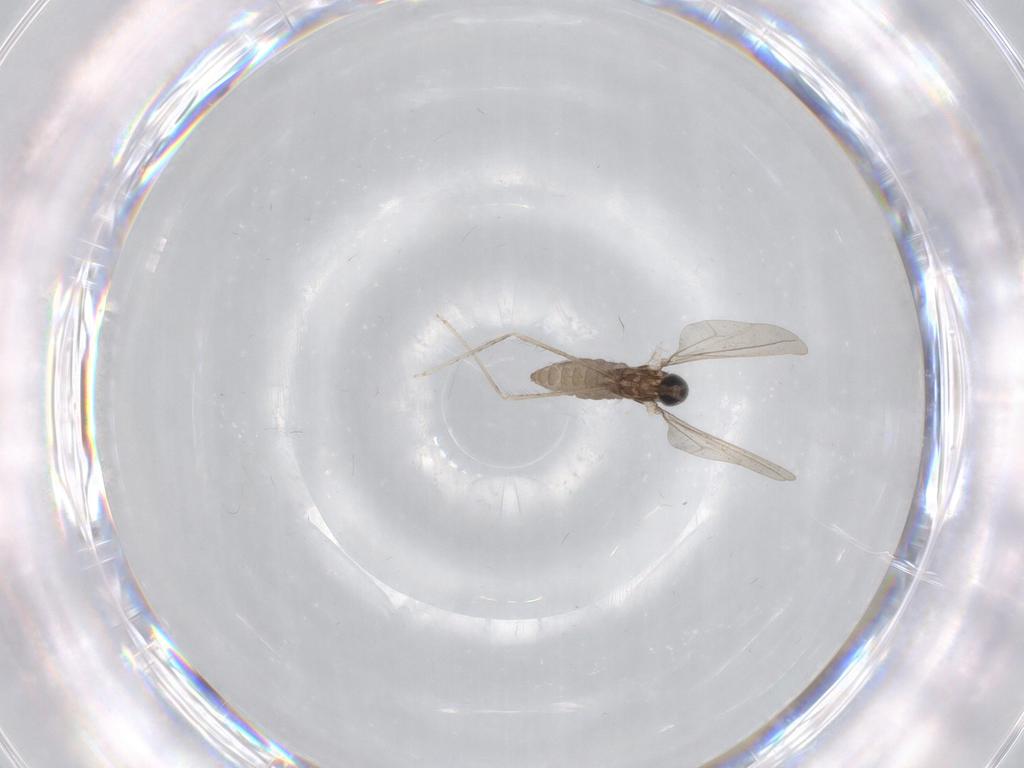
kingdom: Animalia
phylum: Arthropoda
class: Insecta
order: Diptera
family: Cecidomyiidae
